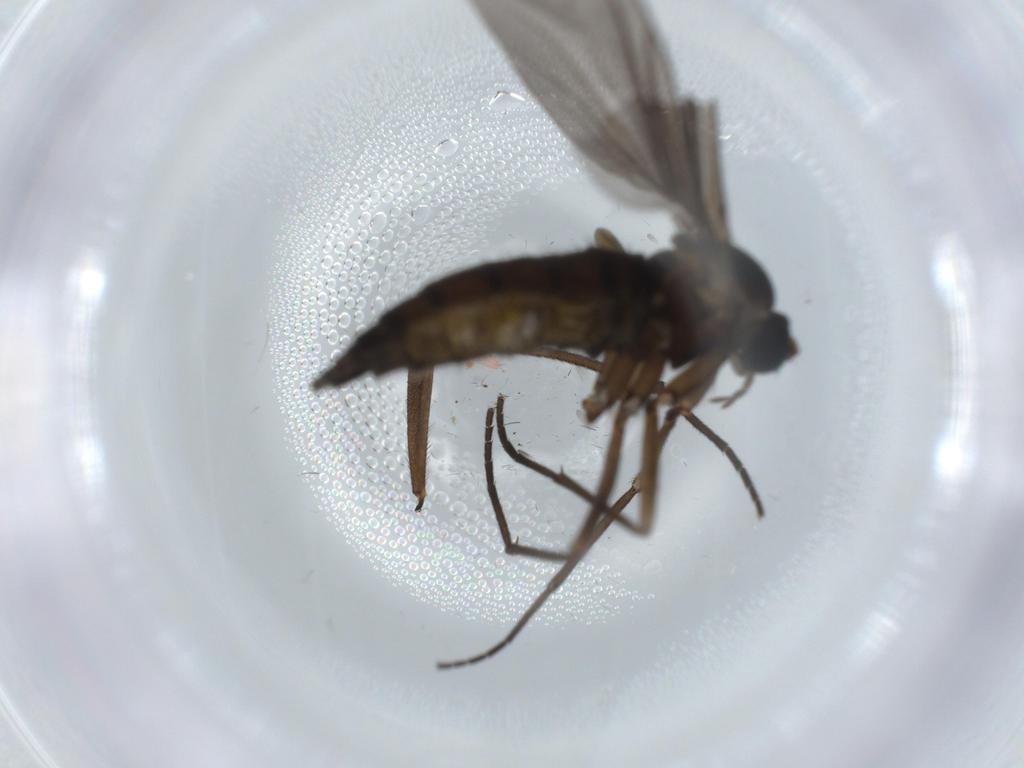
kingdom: Animalia
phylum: Arthropoda
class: Insecta
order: Diptera
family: Sciaridae
